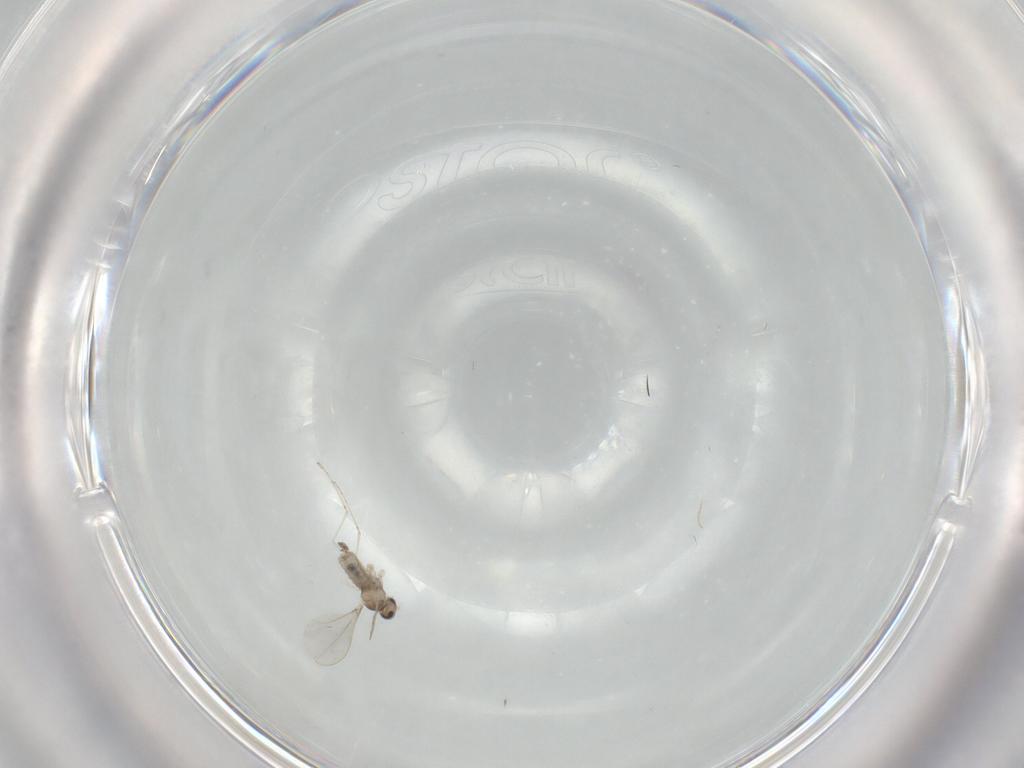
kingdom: Animalia
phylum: Arthropoda
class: Insecta
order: Diptera
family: Cecidomyiidae
